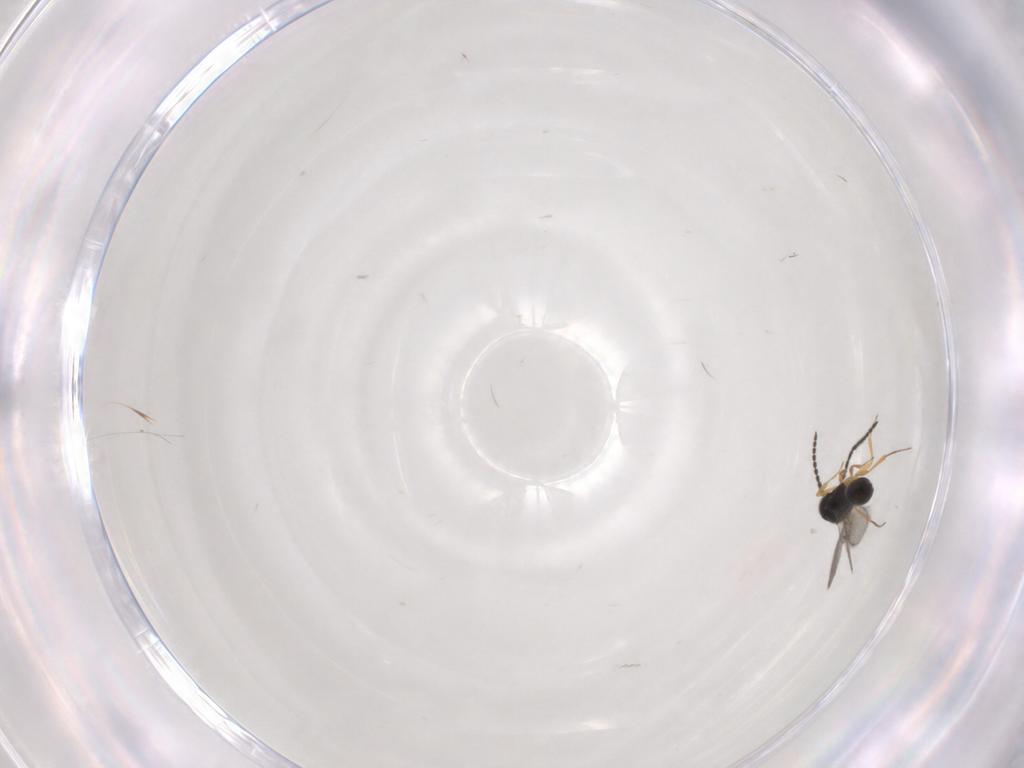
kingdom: Animalia
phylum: Arthropoda
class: Insecta
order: Hymenoptera
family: Scelionidae
